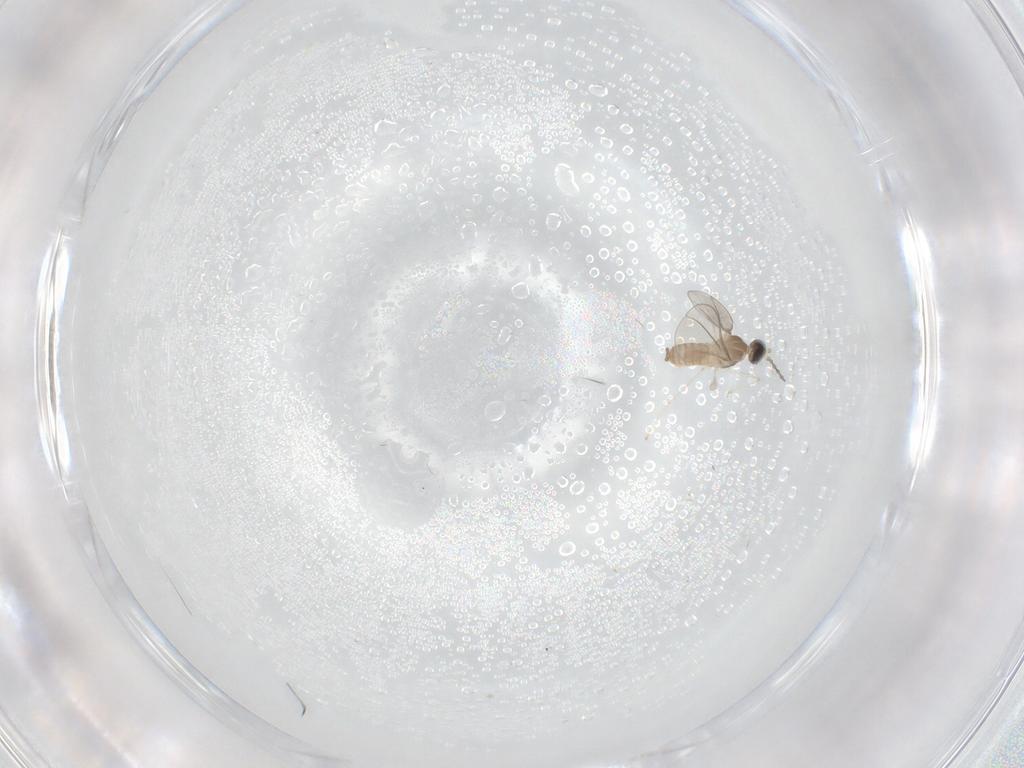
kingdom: Animalia
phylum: Arthropoda
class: Insecta
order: Diptera
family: Cecidomyiidae
